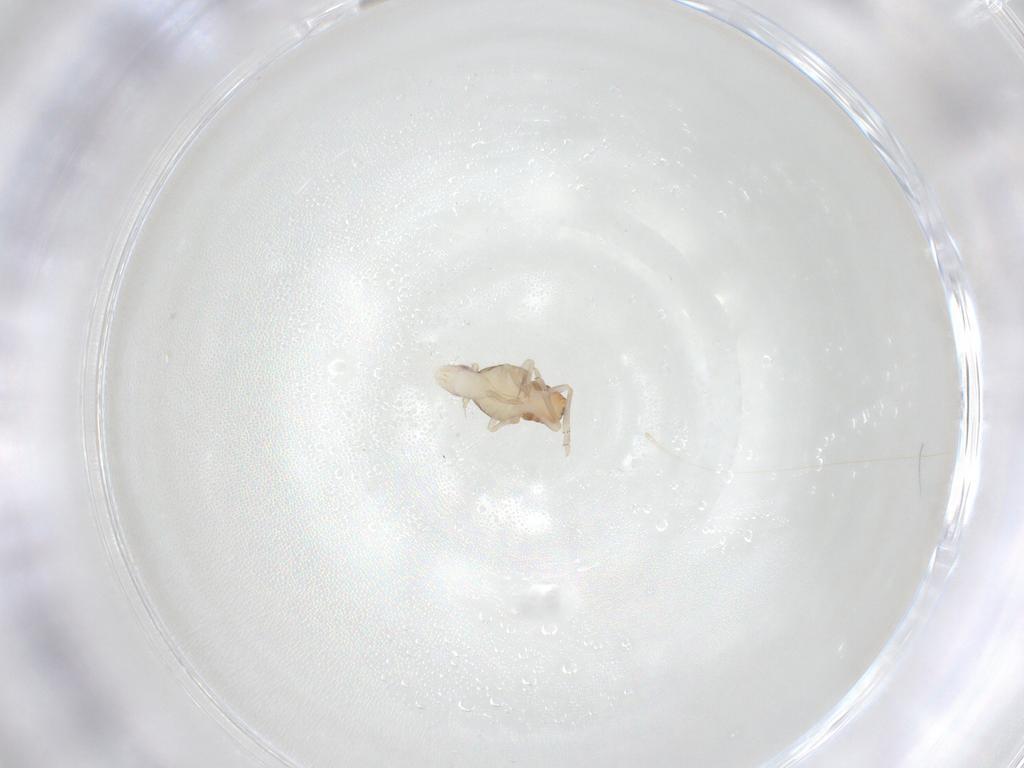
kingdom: Animalia
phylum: Arthropoda
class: Insecta
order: Hemiptera
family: Tropiduchidae
